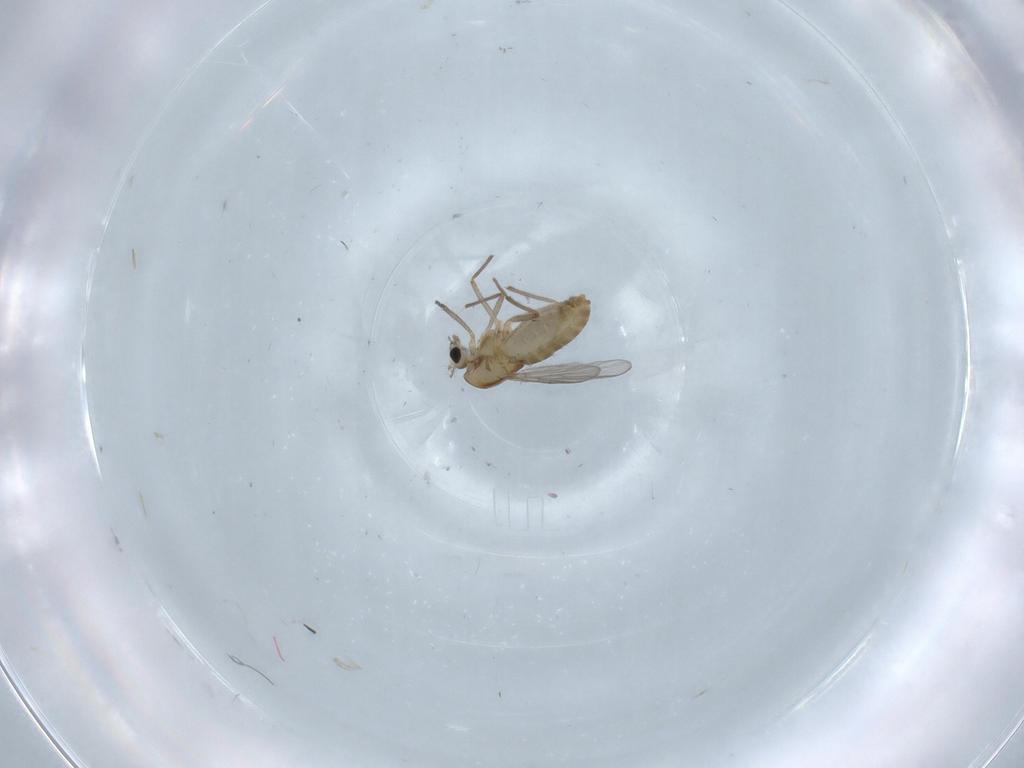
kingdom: Animalia
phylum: Arthropoda
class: Insecta
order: Diptera
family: Chironomidae
